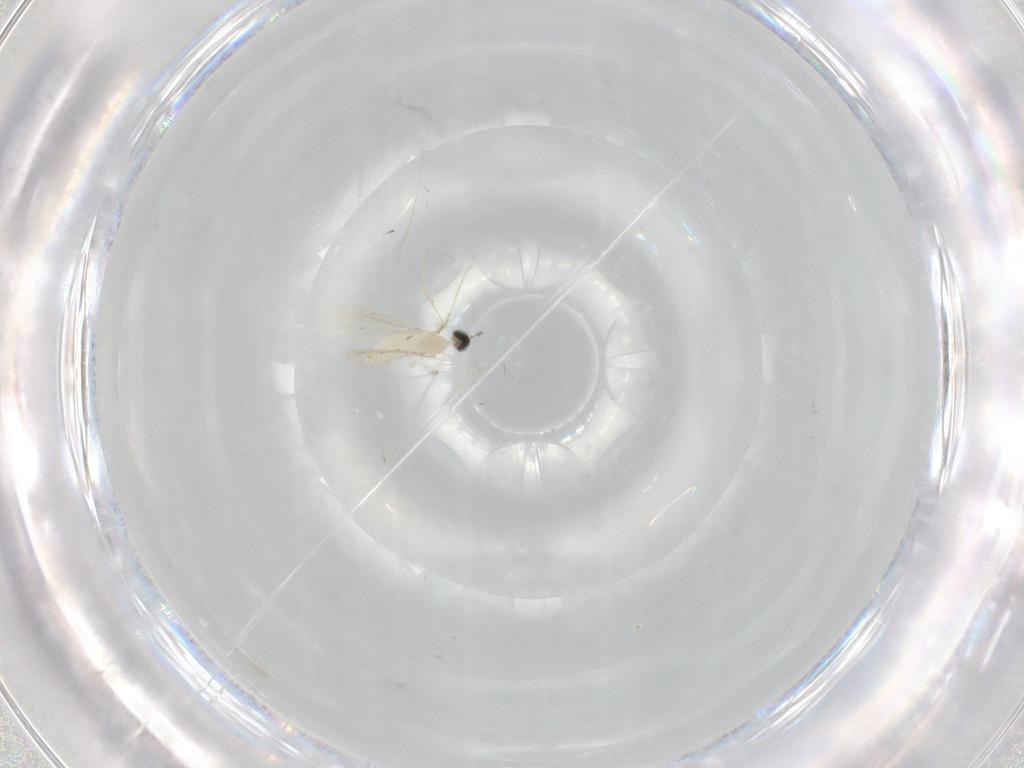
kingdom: Animalia
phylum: Arthropoda
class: Insecta
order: Diptera
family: Cecidomyiidae
